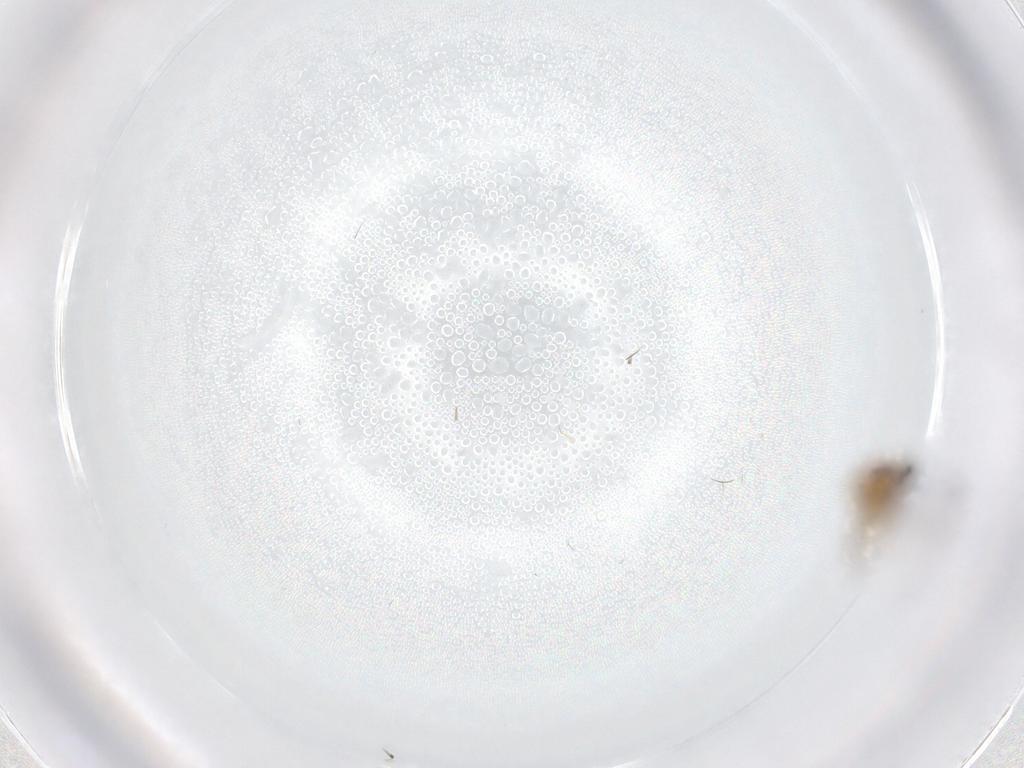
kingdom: Animalia
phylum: Arthropoda
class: Insecta
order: Diptera
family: Ceratopogonidae
